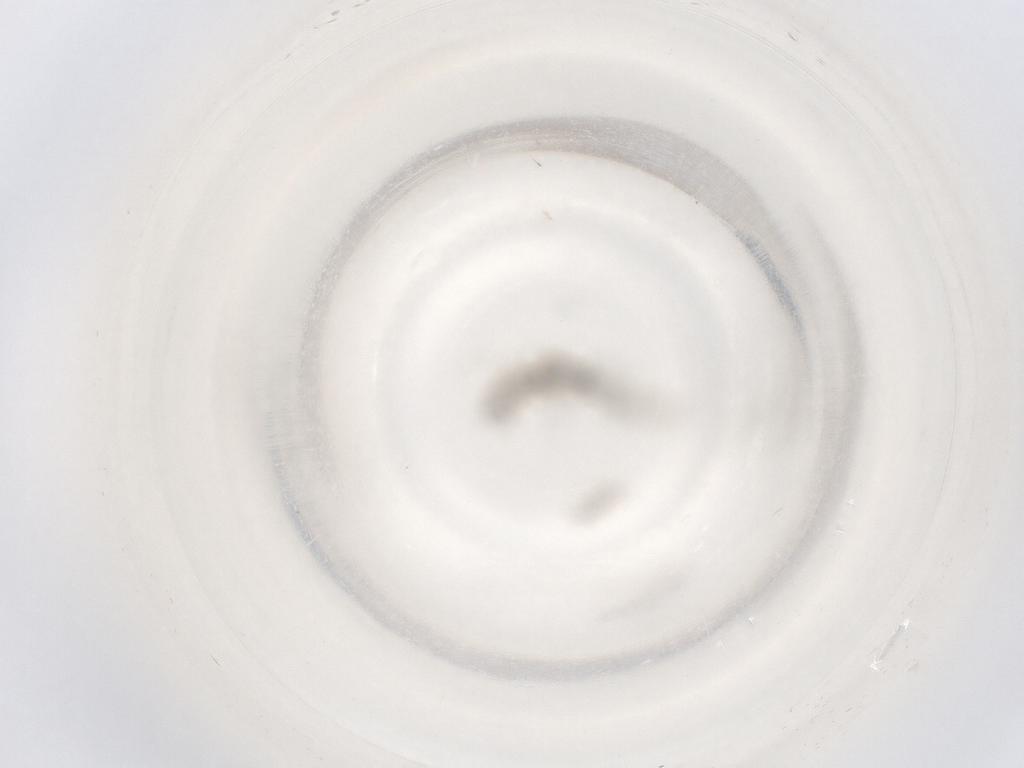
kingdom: Animalia
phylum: Arthropoda
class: Insecta
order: Diptera
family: Cecidomyiidae
